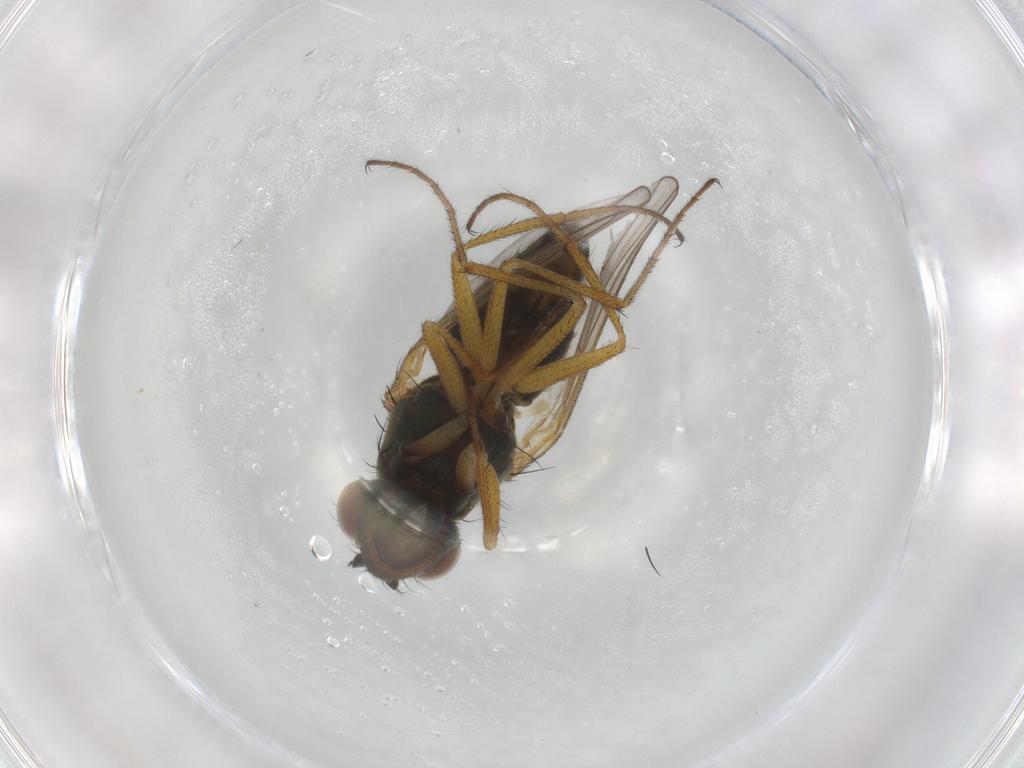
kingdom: Animalia
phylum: Arthropoda
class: Insecta
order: Diptera
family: Ephydridae
